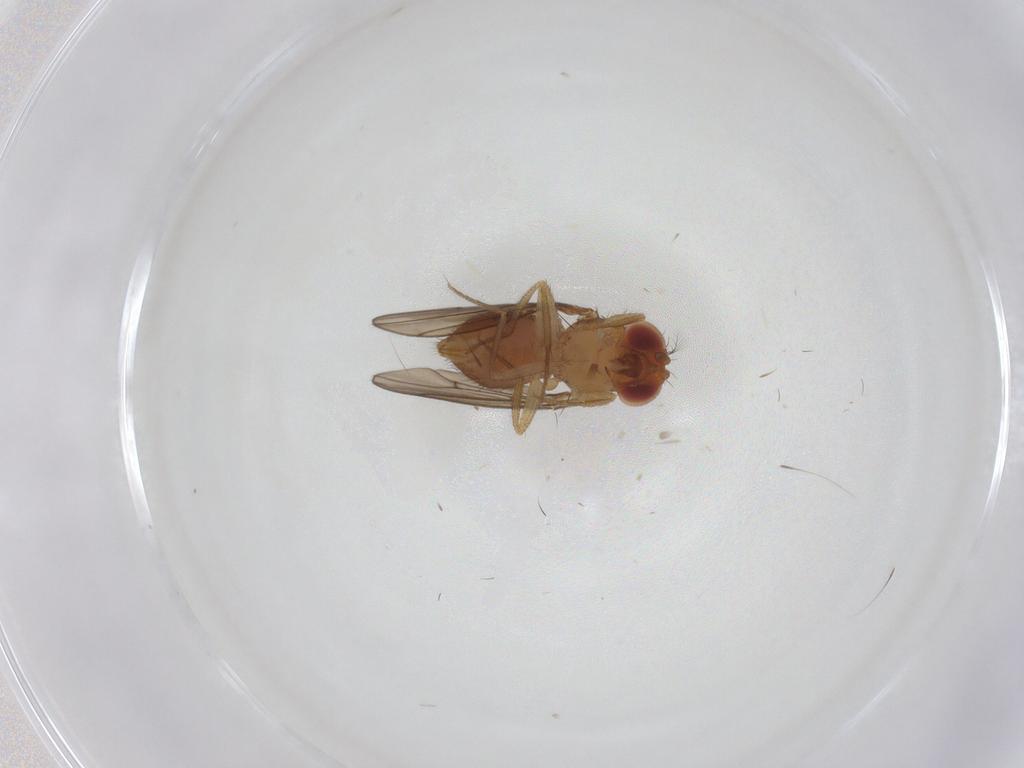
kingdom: Animalia
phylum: Arthropoda
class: Insecta
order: Diptera
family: Drosophilidae
